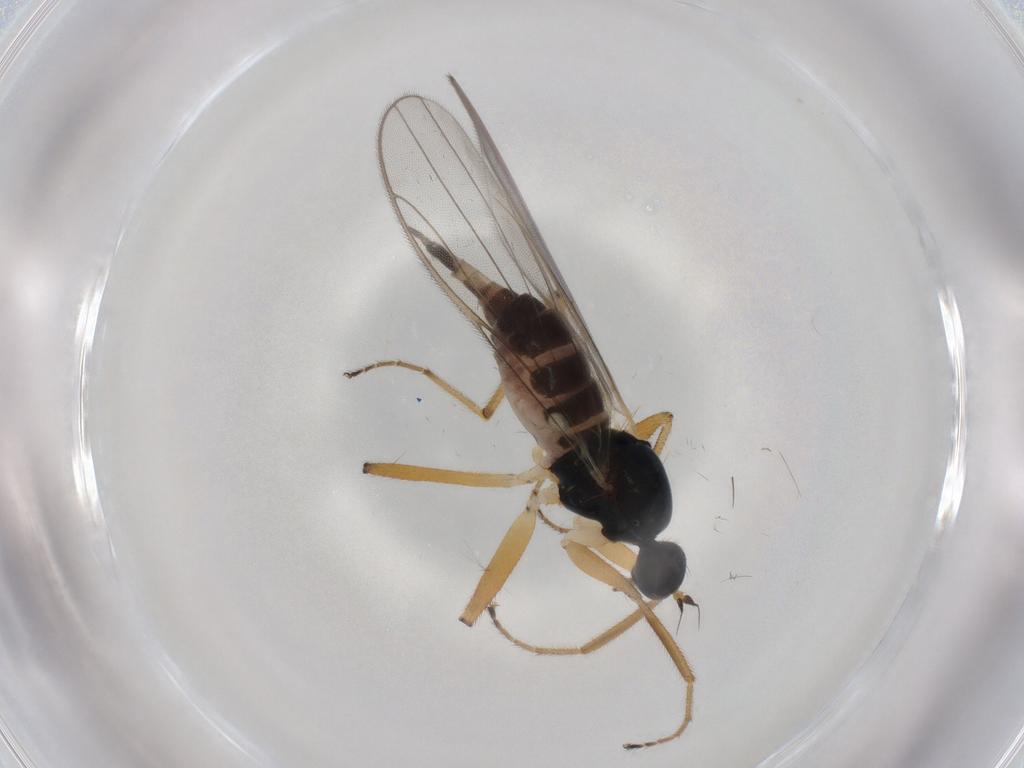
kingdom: Animalia
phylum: Arthropoda
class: Insecta
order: Diptera
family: Hybotidae
